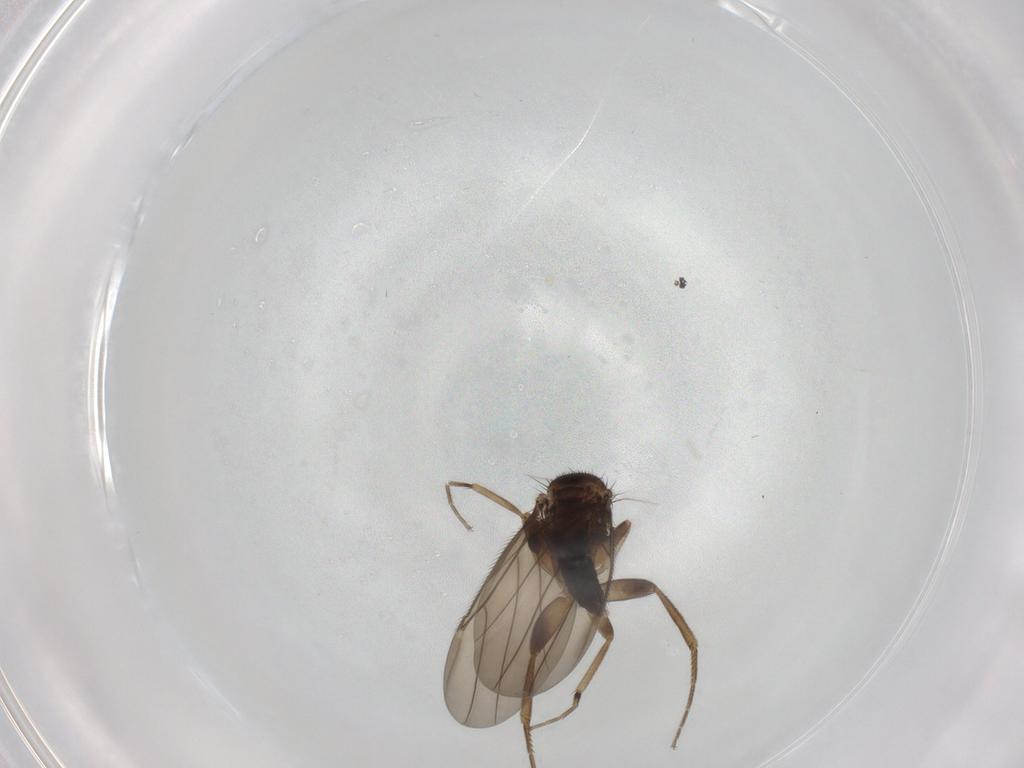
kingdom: Animalia
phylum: Arthropoda
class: Insecta
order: Diptera
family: Phoridae
